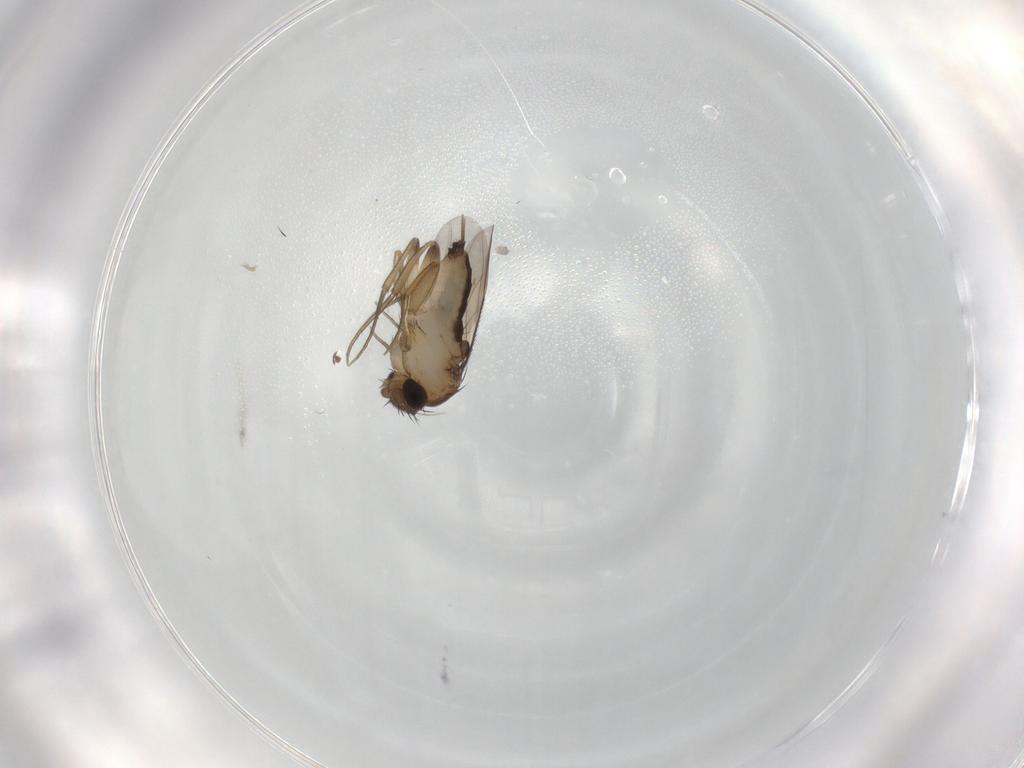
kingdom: Animalia
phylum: Arthropoda
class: Insecta
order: Diptera
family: Phoridae
